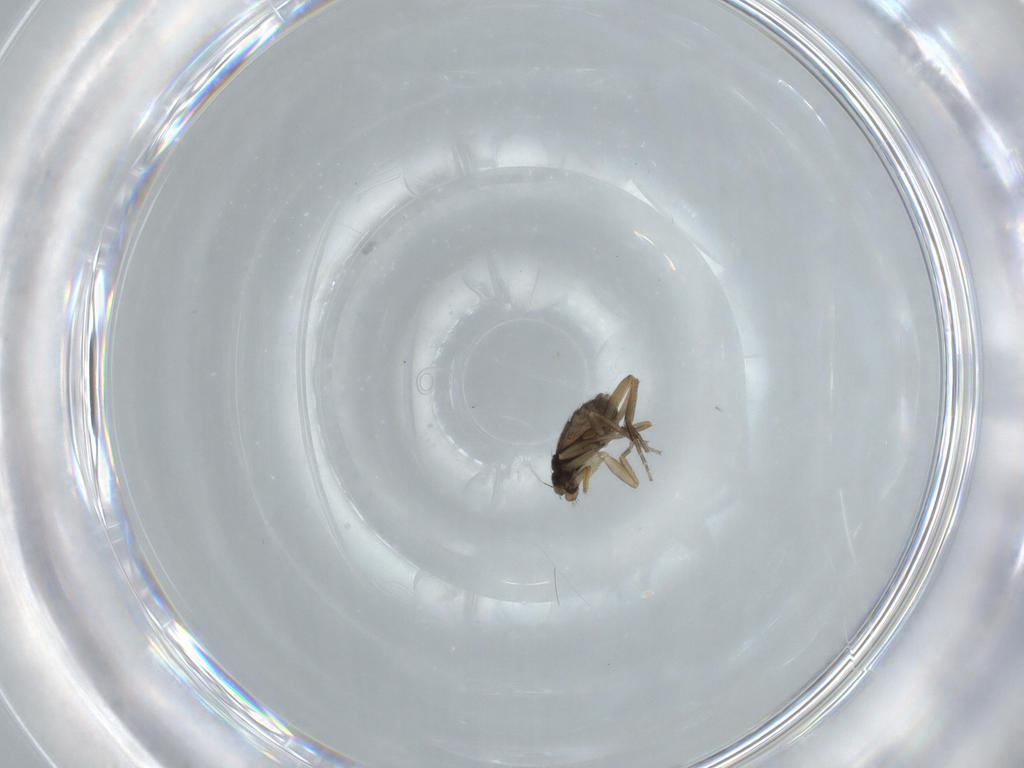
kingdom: Animalia
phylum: Arthropoda
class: Insecta
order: Diptera
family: Phoridae
